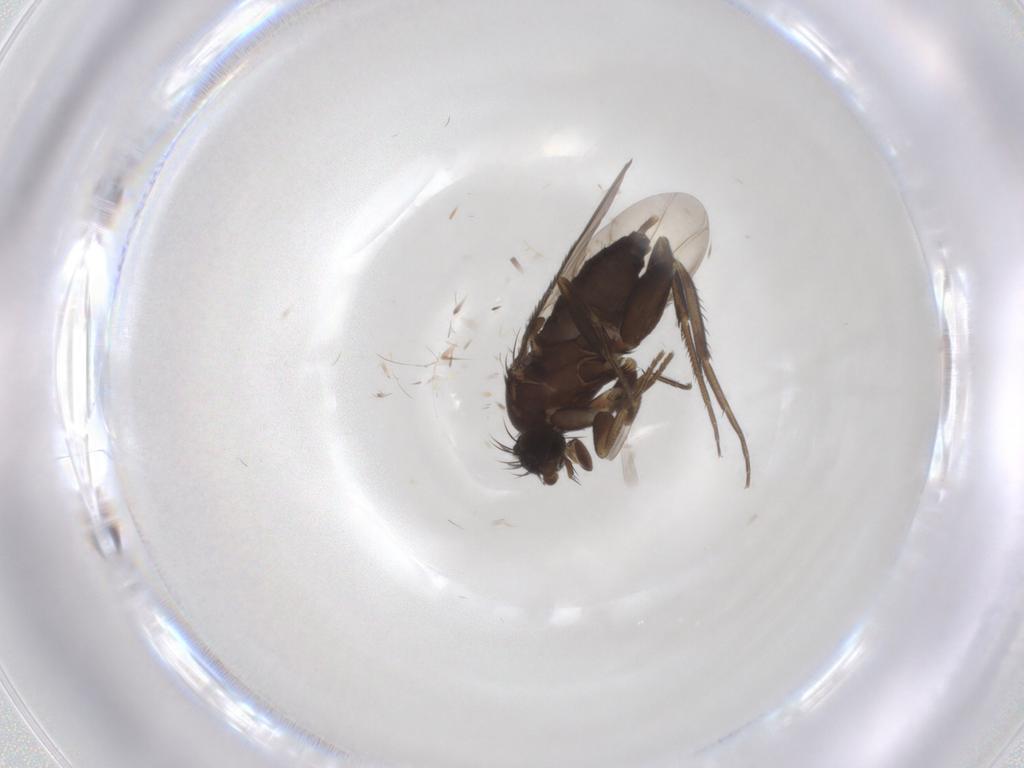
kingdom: Animalia
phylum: Arthropoda
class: Insecta
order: Diptera
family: Phoridae
